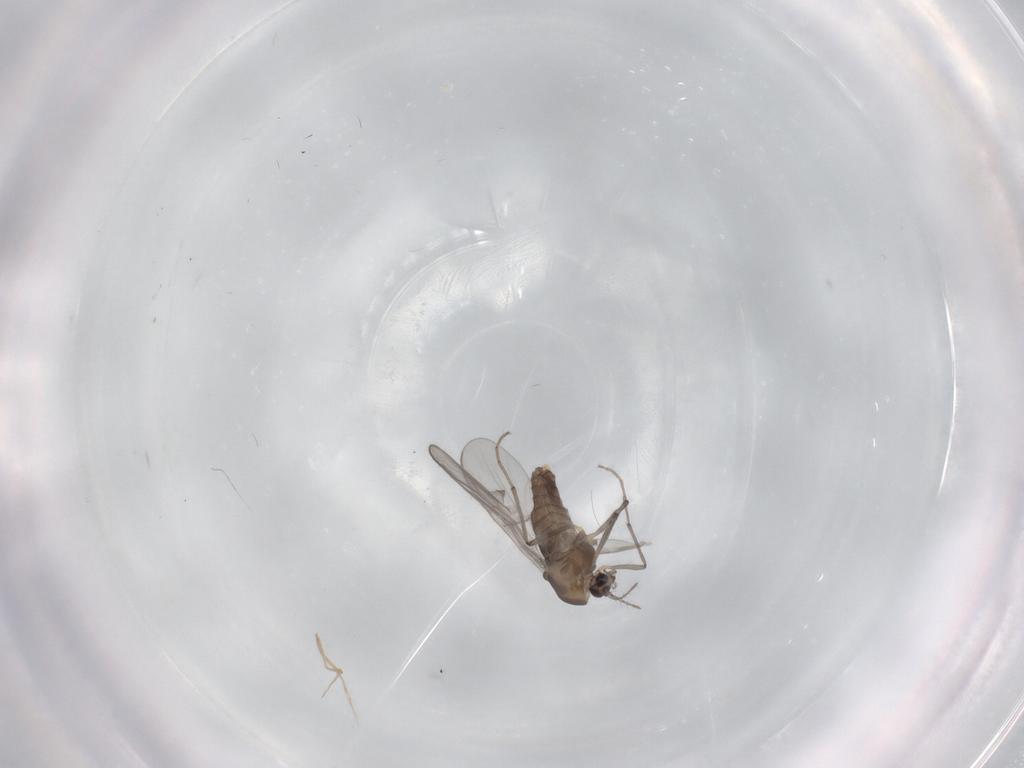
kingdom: Animalia
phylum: Arthropoda
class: Insecta
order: Diptera
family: Chironomidae
